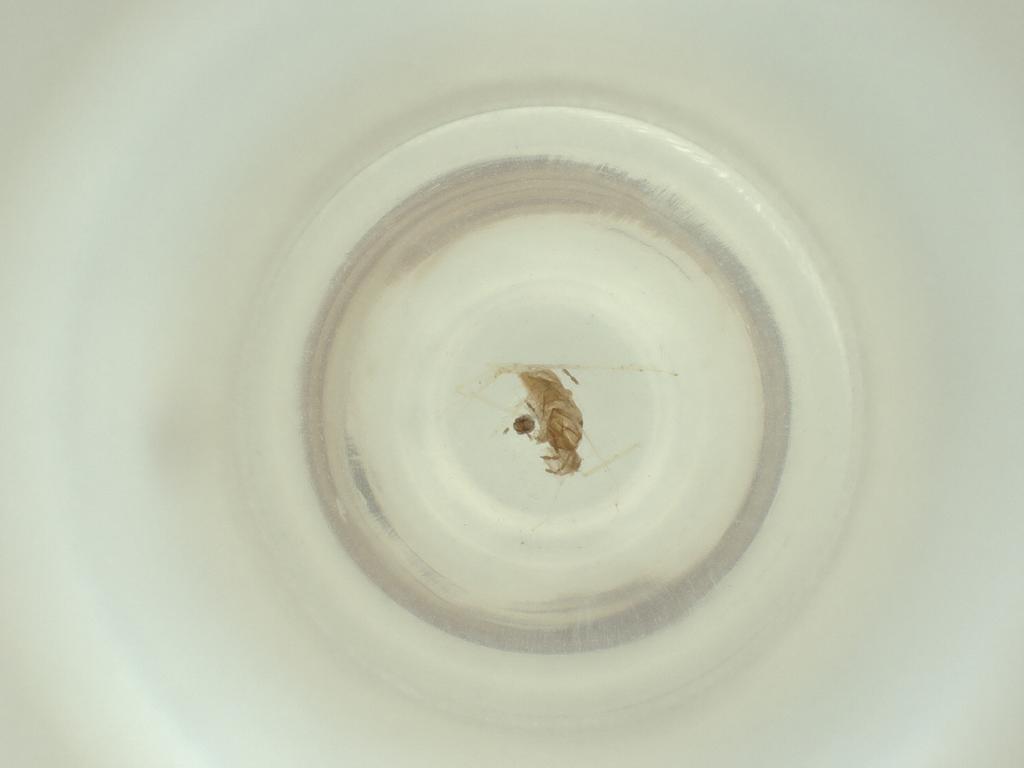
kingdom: Animalia
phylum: Arthropoda
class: Insecta
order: Diptera
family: Cecidomyiidae
